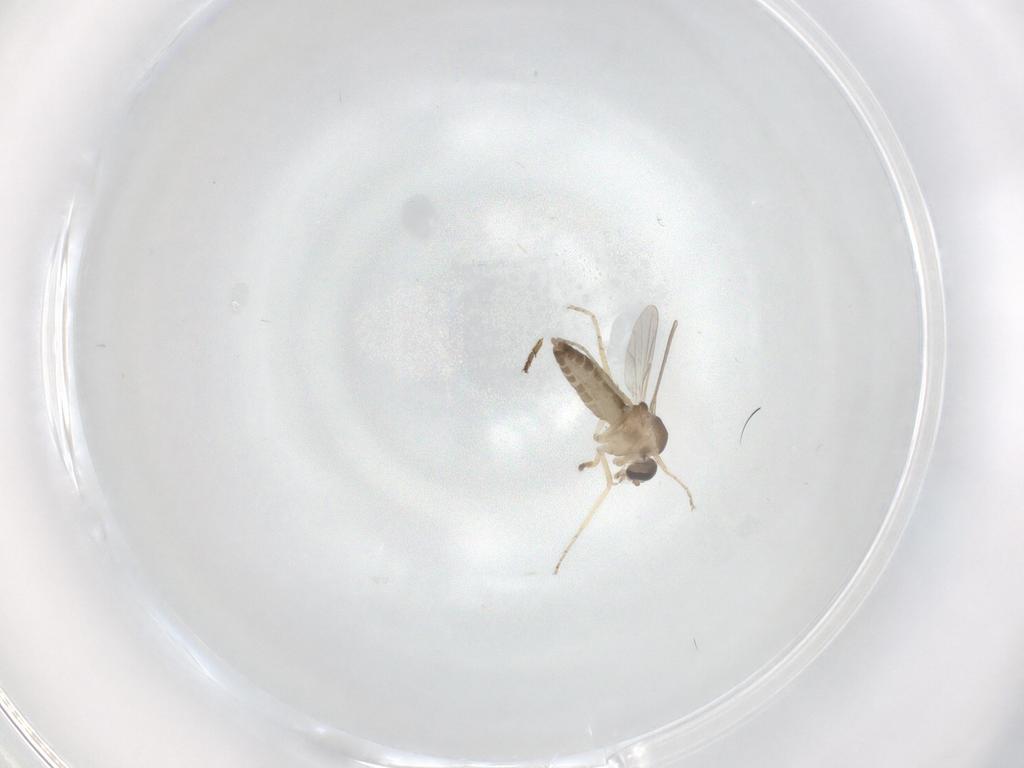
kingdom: Animalia
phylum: Arthropoda
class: Insecta
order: Diptera
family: Ceratopogonidae
